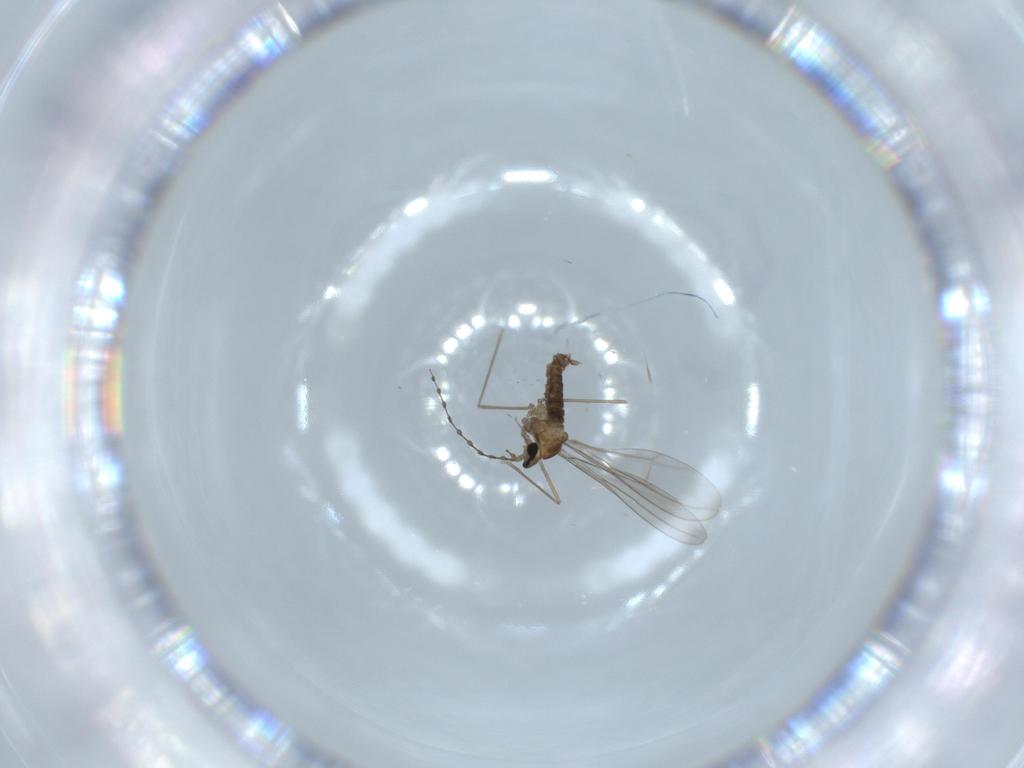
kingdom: Animalia
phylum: Arthropoda
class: Insecta
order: Diptera
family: Cecidomyiidae
